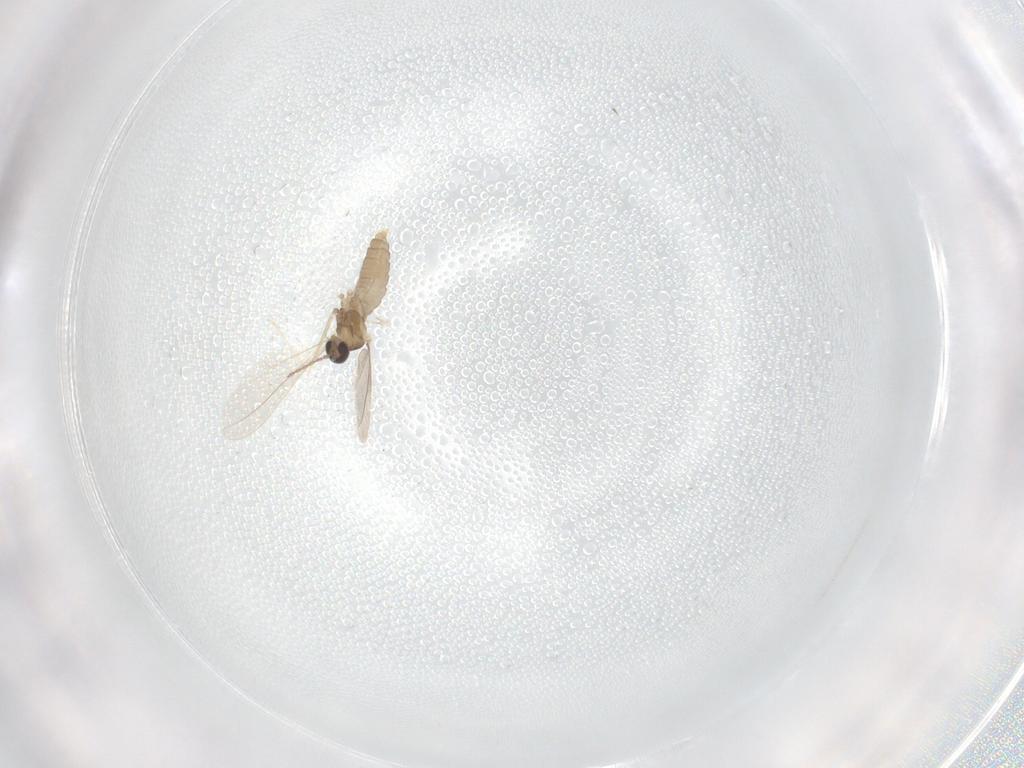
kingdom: Animalia
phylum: Arthropoda
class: Insecta
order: Diptera
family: Cecidomyiidae
